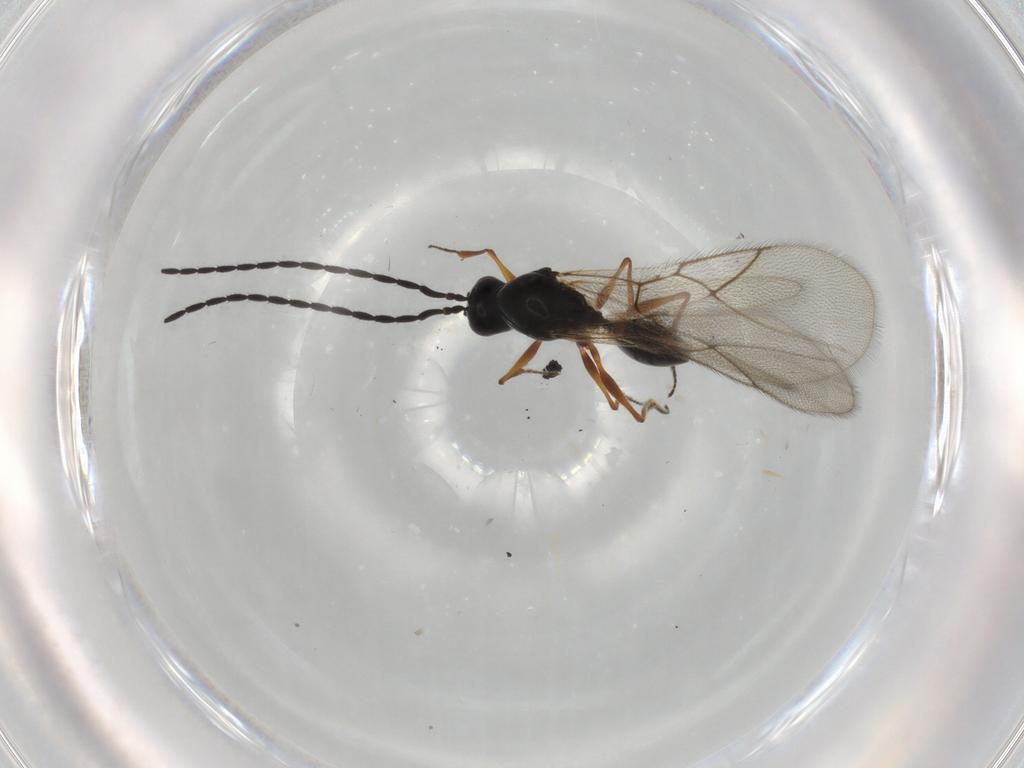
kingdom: Animalia
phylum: Arthropoda
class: Insecta
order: Hymenoptera
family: Figitidae
